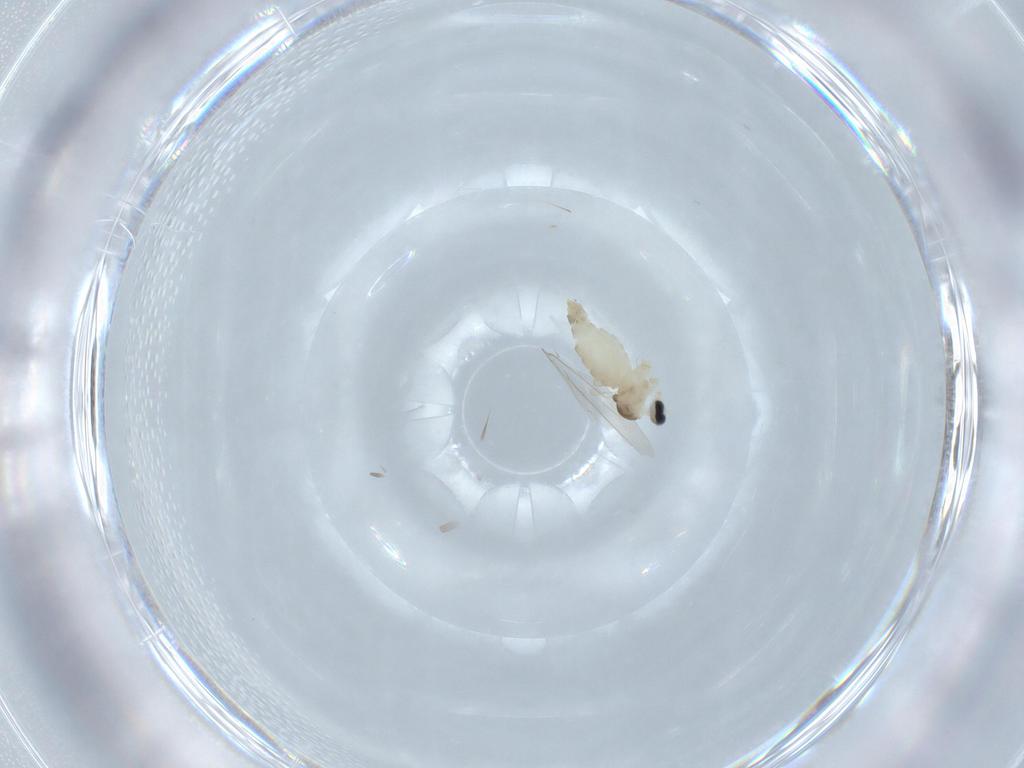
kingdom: Animalia
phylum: Arthropoda
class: Insecta
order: Diptera
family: Cecidomyiidae
